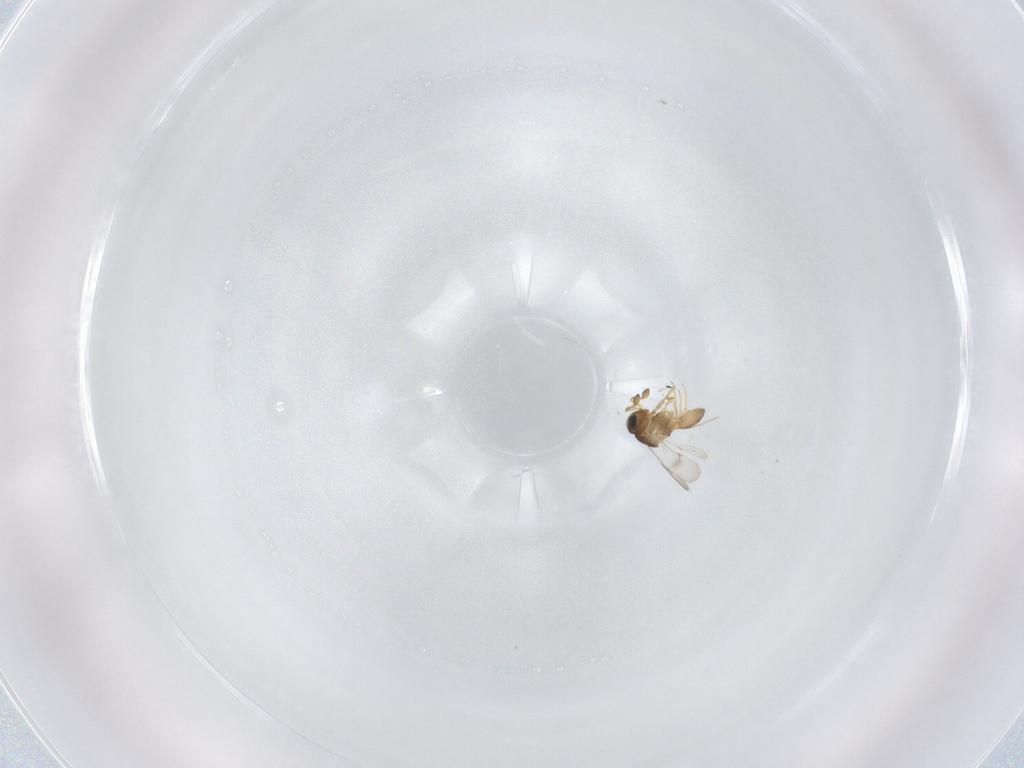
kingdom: Animalia
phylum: Arthropoda
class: Insecta
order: Hymenoptera
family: Scelionidae
